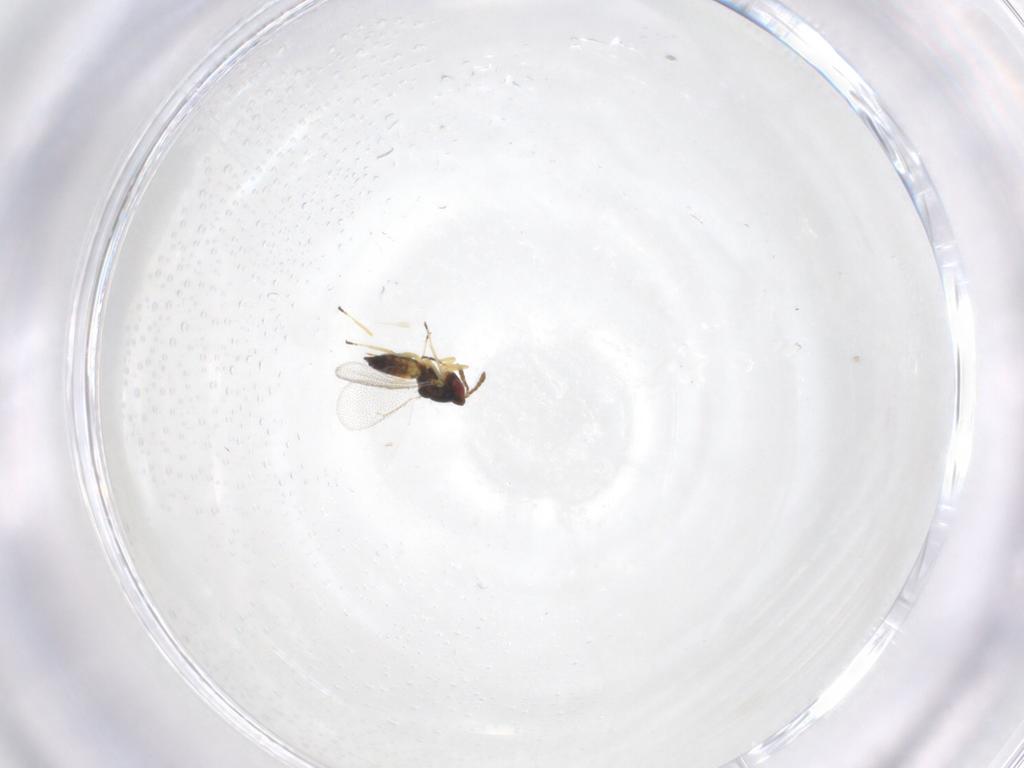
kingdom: Animalia
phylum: Arthropoda
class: Insecta
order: Hymenoptera
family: Eulophidae
